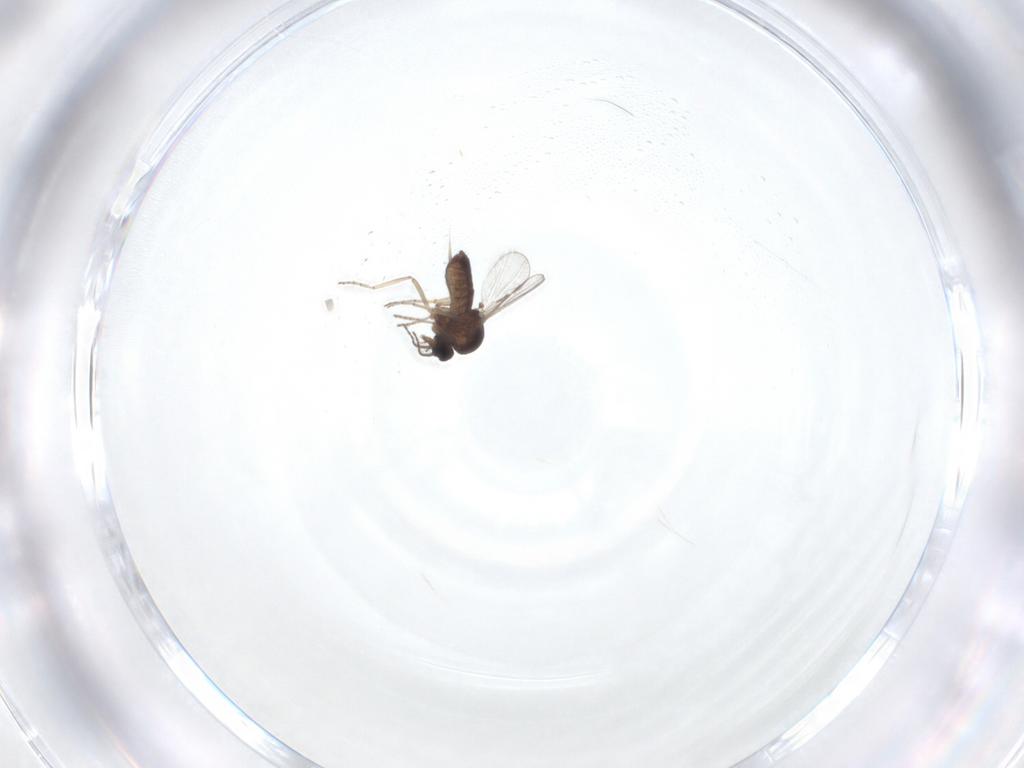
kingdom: Animalia
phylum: Arthropoda
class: Insecta
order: Diptera
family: Ceratopogonidae
